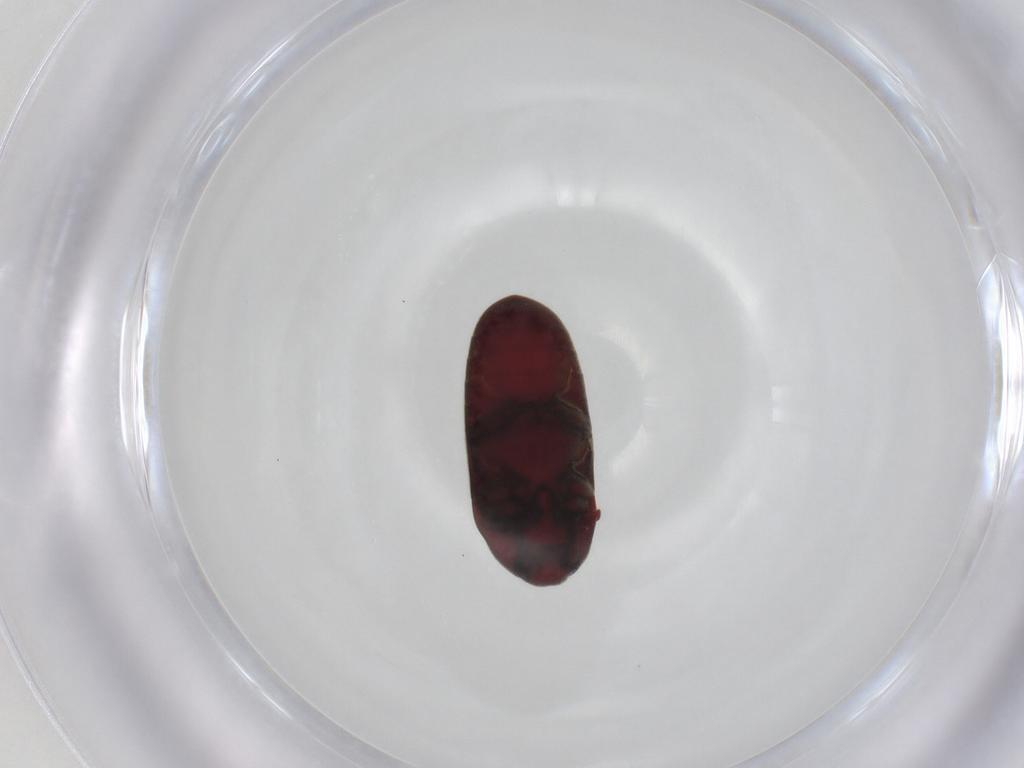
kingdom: Animalia
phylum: Arthropoda
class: Insecta
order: Coleoptera
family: Throscidae
